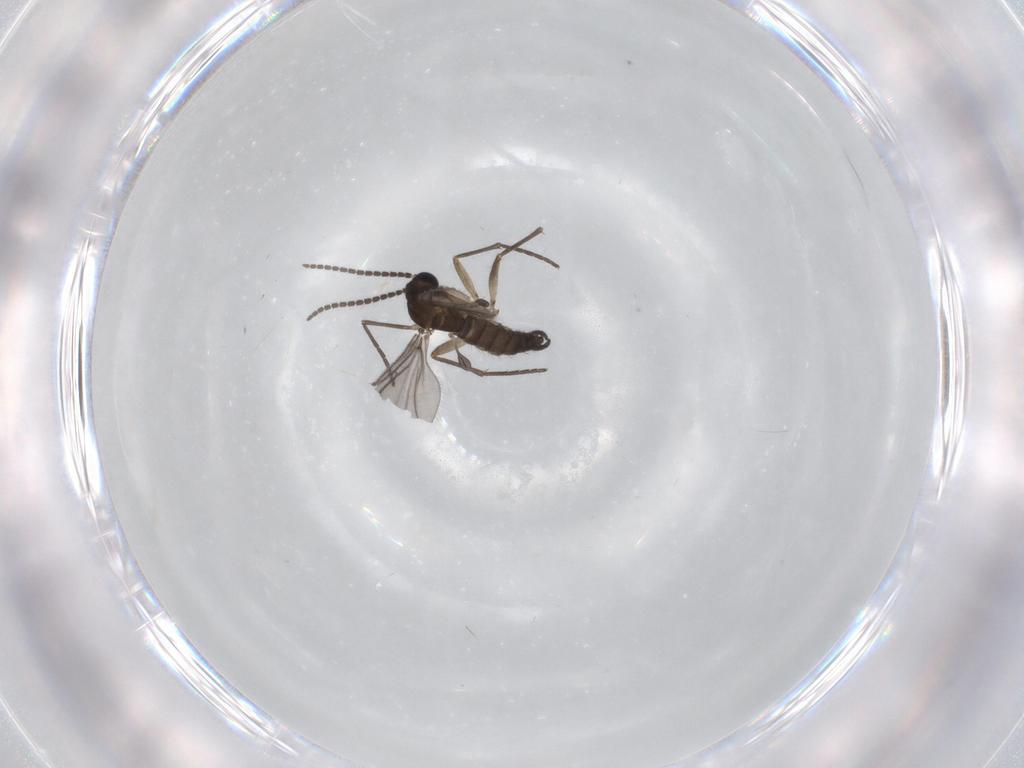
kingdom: Animalia
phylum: Arthropoda
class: Insecta
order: Diptera
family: Sciaridae
